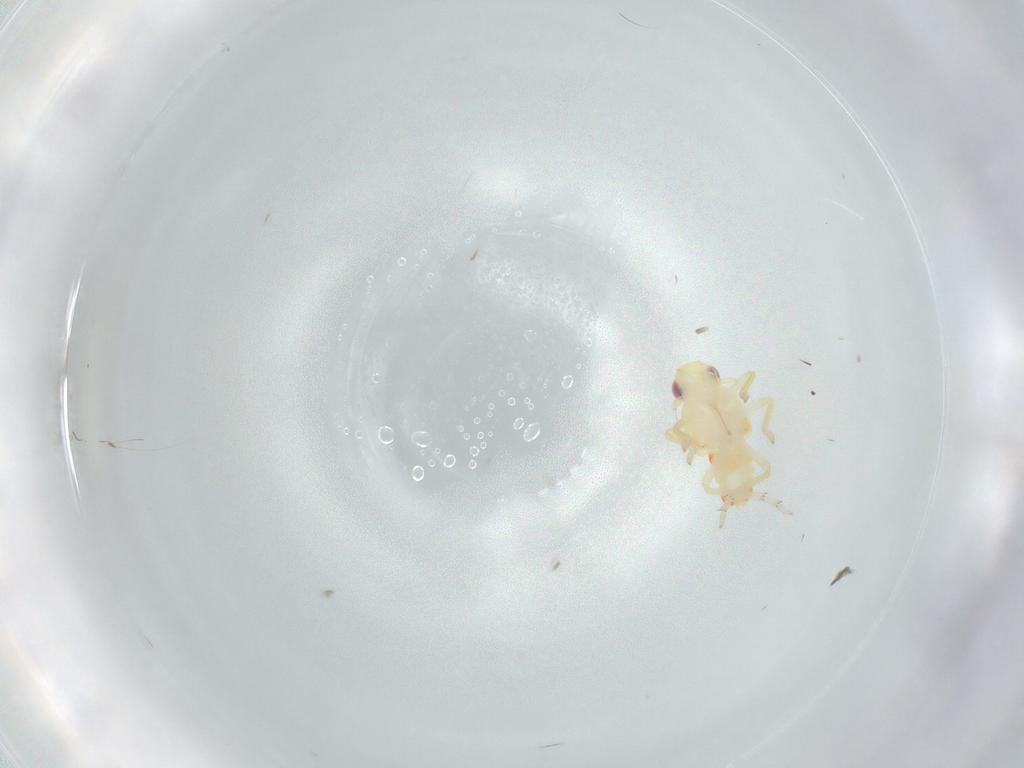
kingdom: Animalia
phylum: Arthropoda
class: Insecta
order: Hemiptera
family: Tropiduchidae
